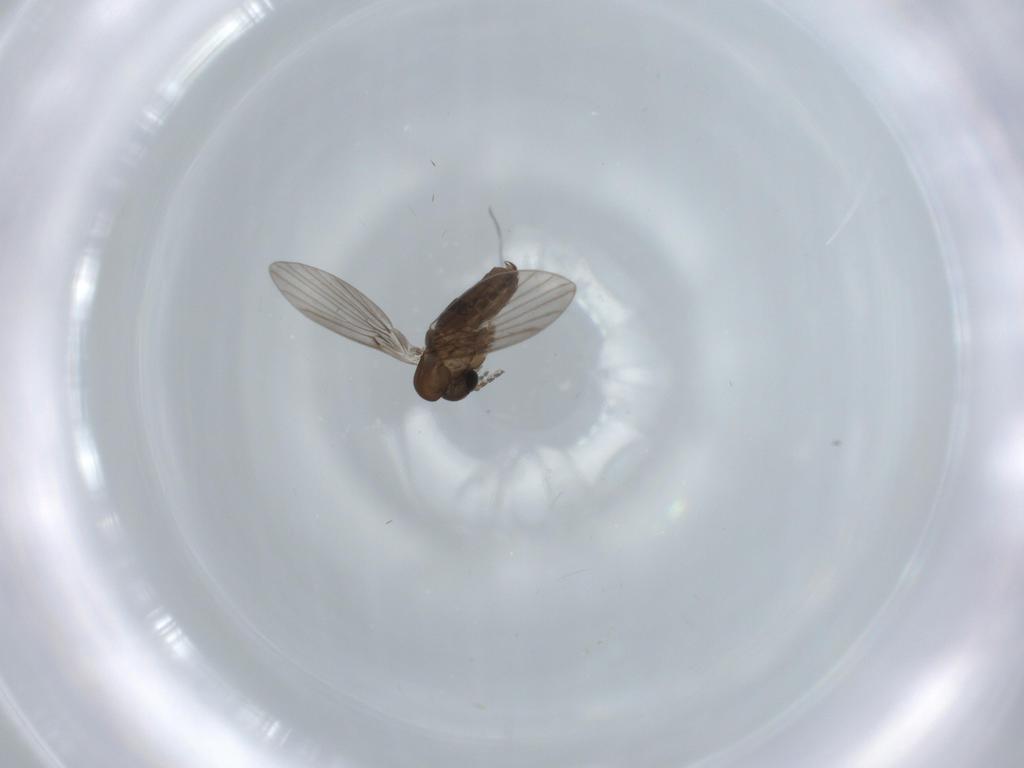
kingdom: Animalia
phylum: Arthropoda
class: Insecta
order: Diptera
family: Psychodidae
